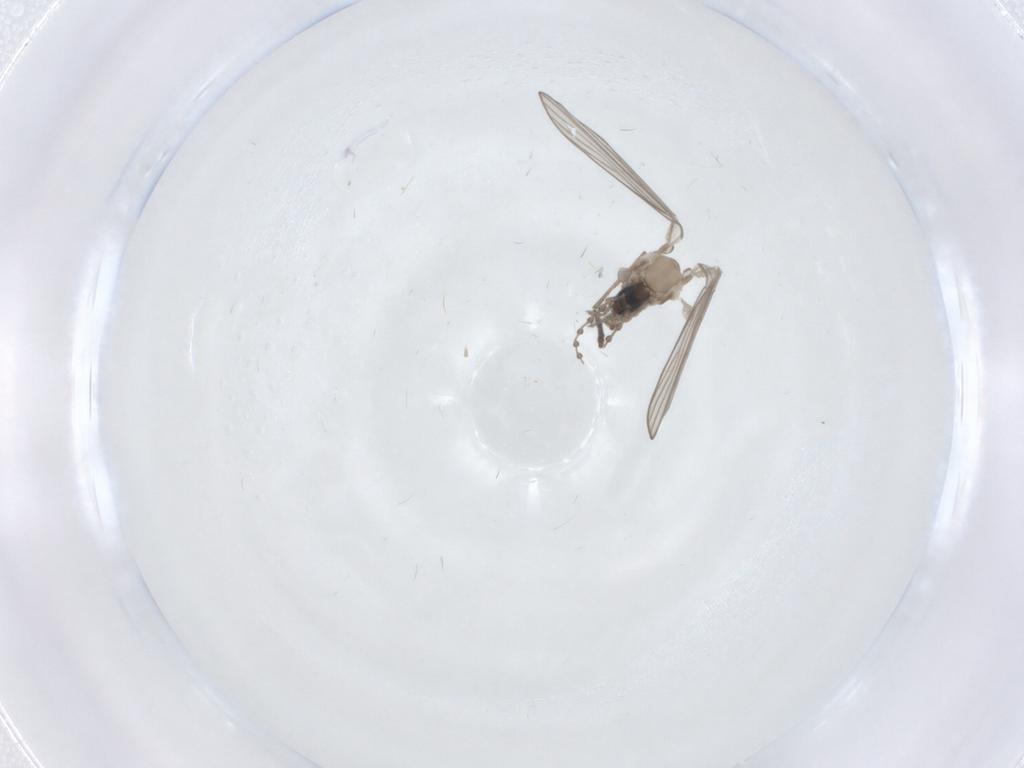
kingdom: Animalia
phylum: Arthropoda
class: Insecta
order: Diptera
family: Psychodidae
